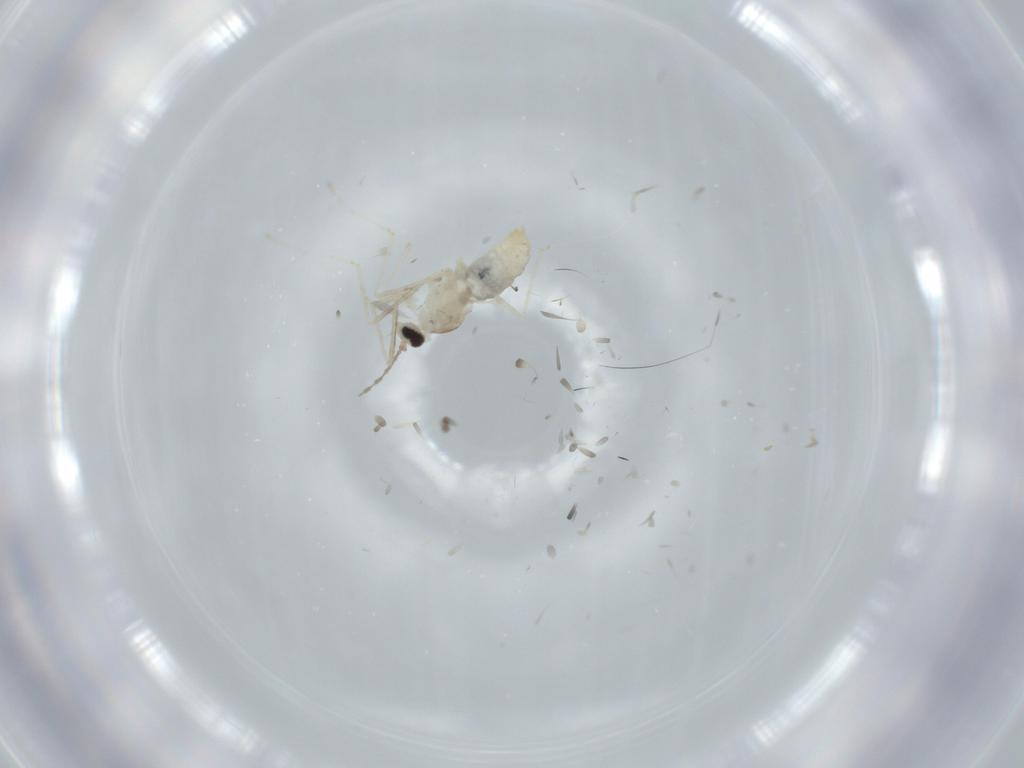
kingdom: Animalia
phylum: Arthropoda
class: Insecta
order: Diptera
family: Cecidomyiidae
